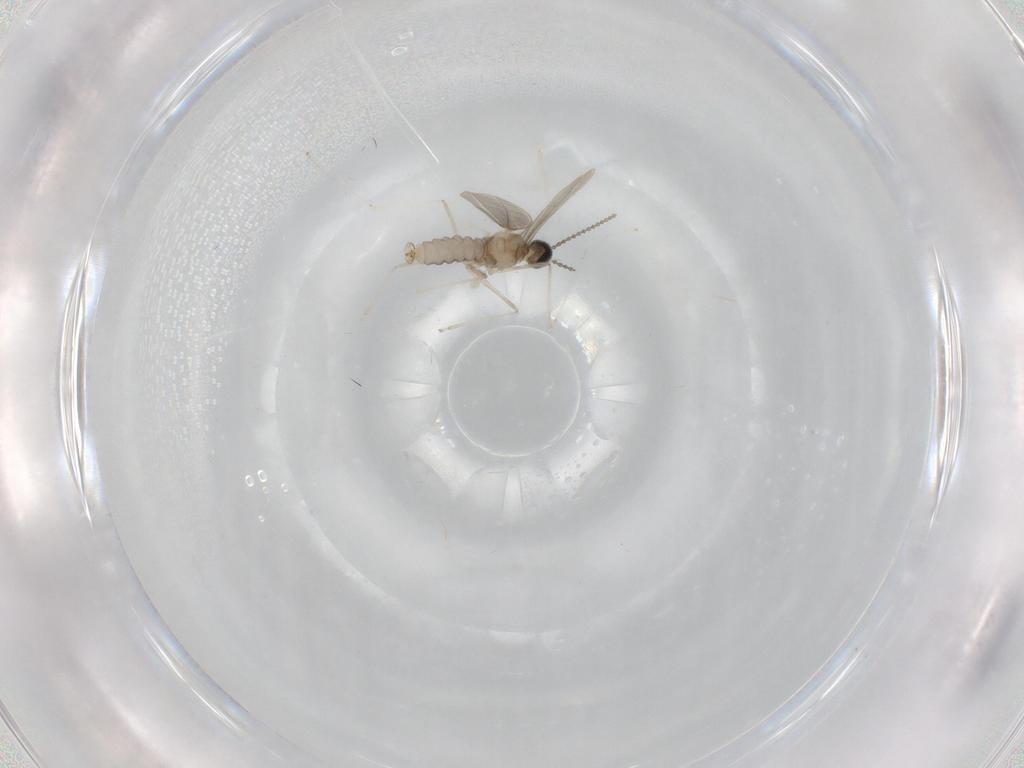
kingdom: Animalia
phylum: Arthropoda
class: Insecta
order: Diptera
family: Cecidomyiidae
